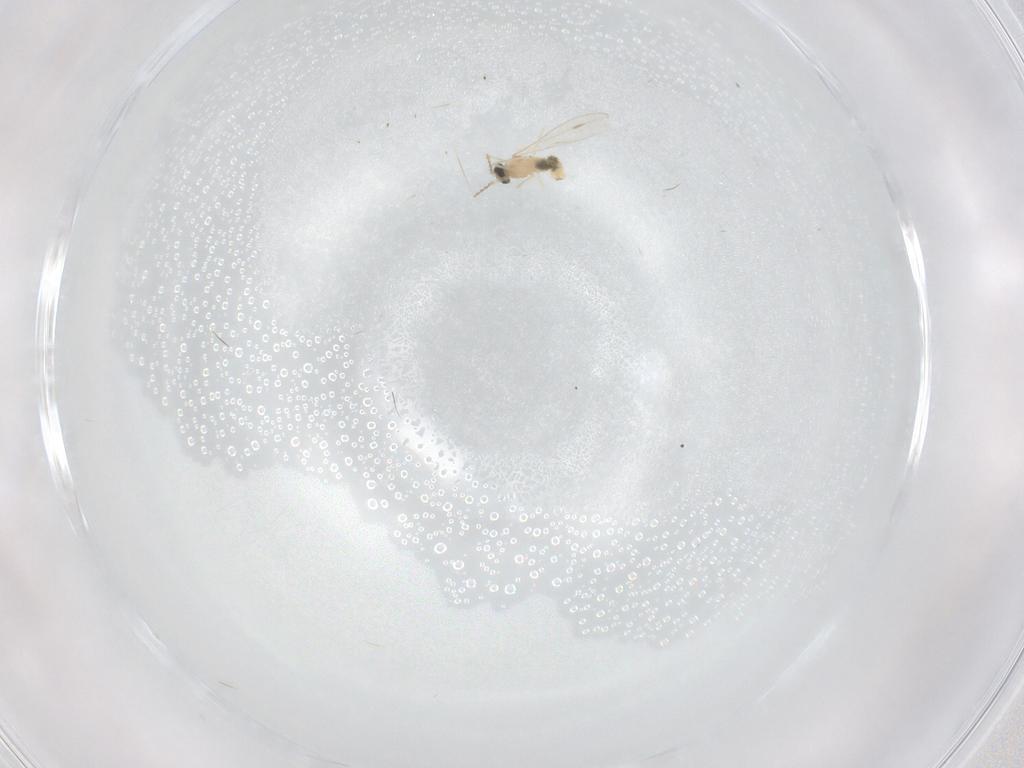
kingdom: Animalia
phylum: Arthropoda
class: Insecta
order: Diptera
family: Cecidomyiidae
